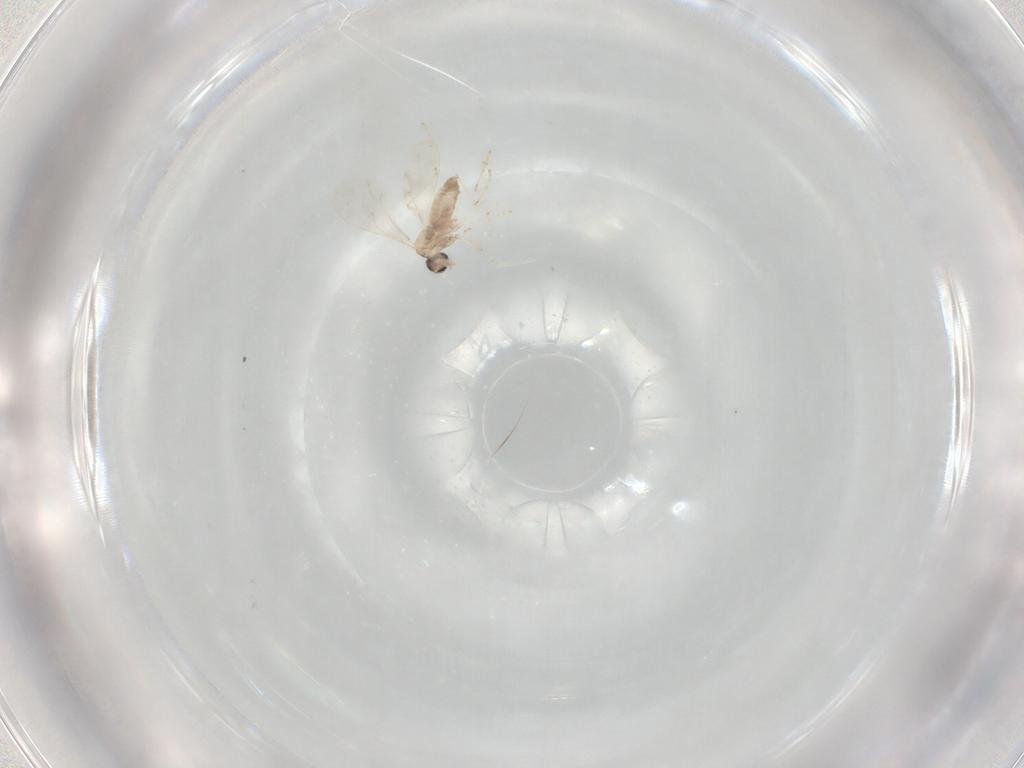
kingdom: Animalia
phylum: Arthropoda
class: Insecta
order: Diptera
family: Cecidomyiidae
